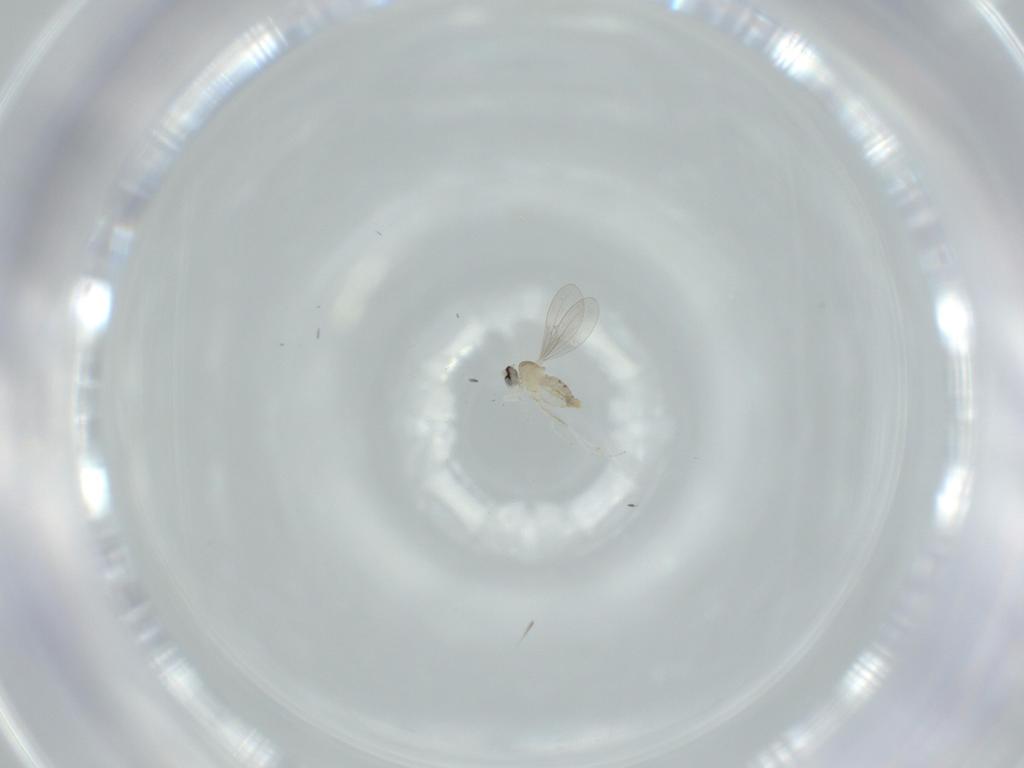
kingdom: Animalia
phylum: Arthropoda
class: Insecta
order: Diptera
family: Cecidomyiidae
